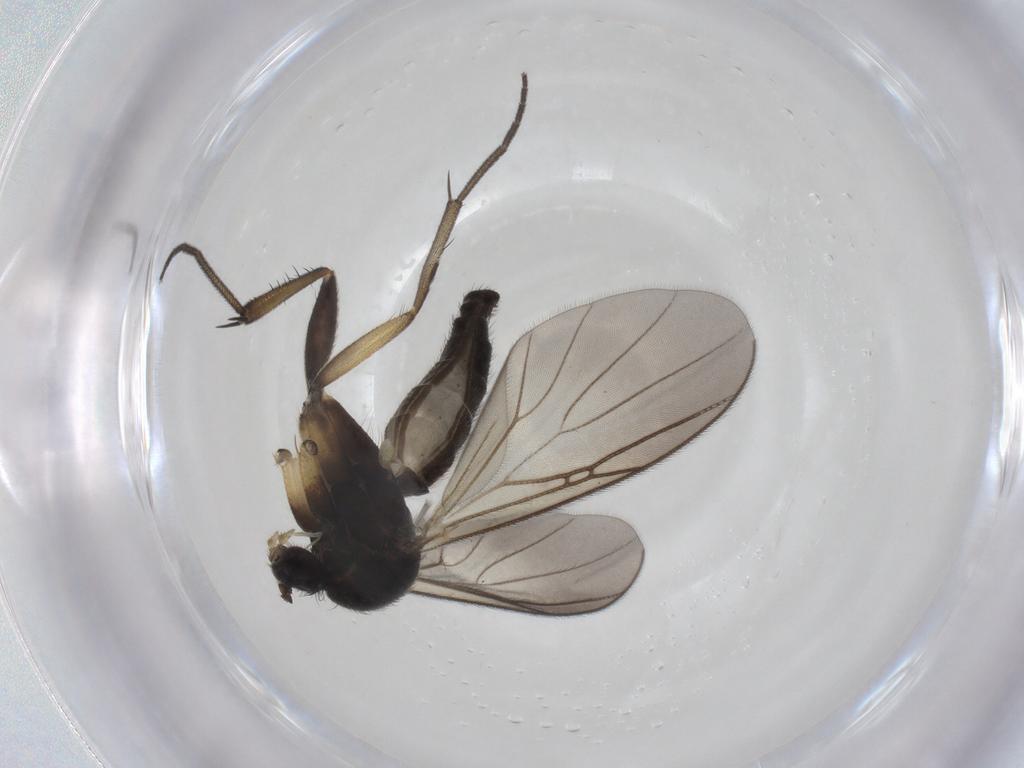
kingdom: Animalia
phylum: Arthropoda
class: Insecta
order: Diptera
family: Mycetophilidae
